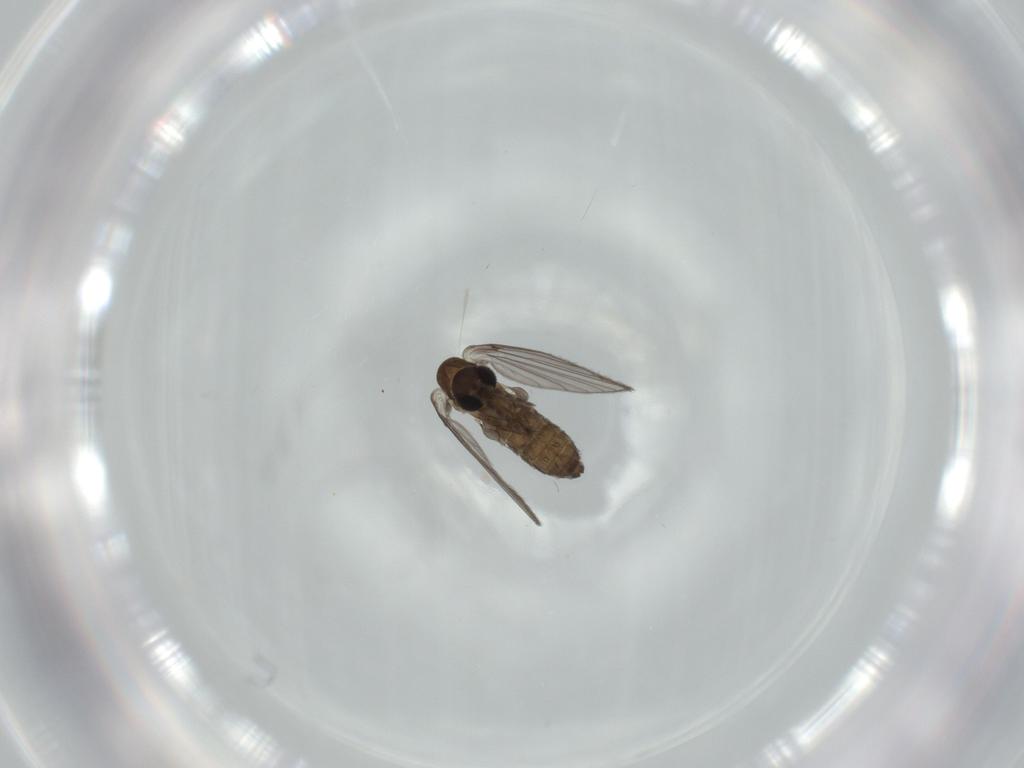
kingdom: Animalia
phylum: Arthropoda
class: Insecta
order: Diptera
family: Psychodidae
